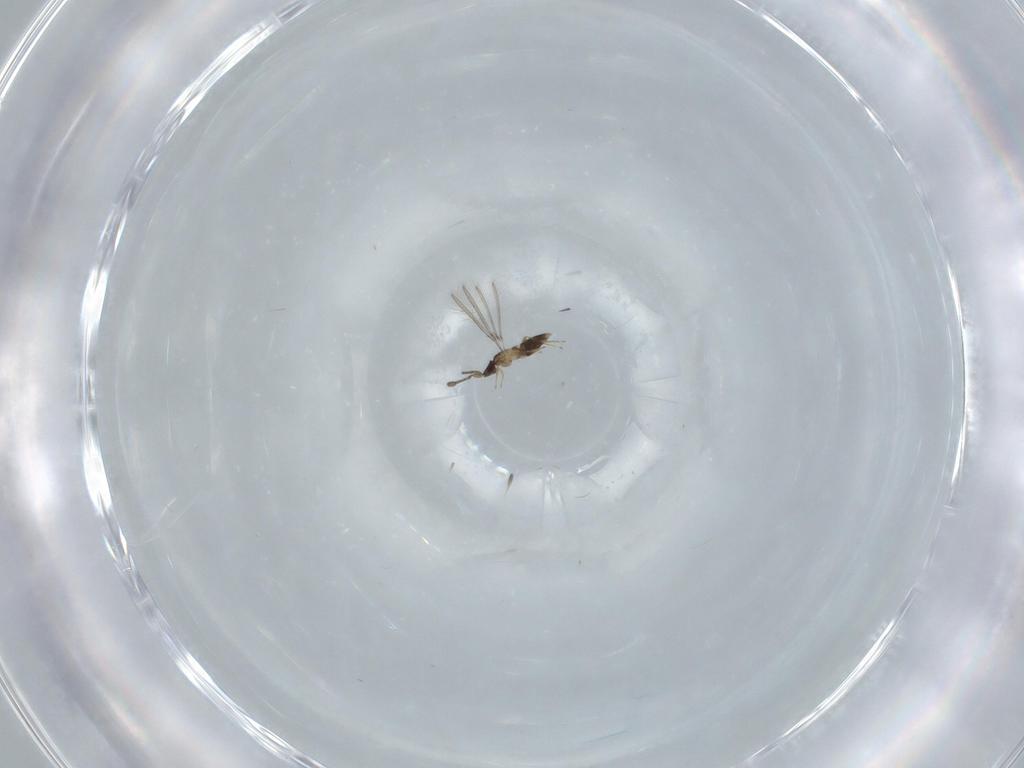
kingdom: Animalia
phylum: Arthropoda
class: Insecta
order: Hymenoptera
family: Mymaridae
